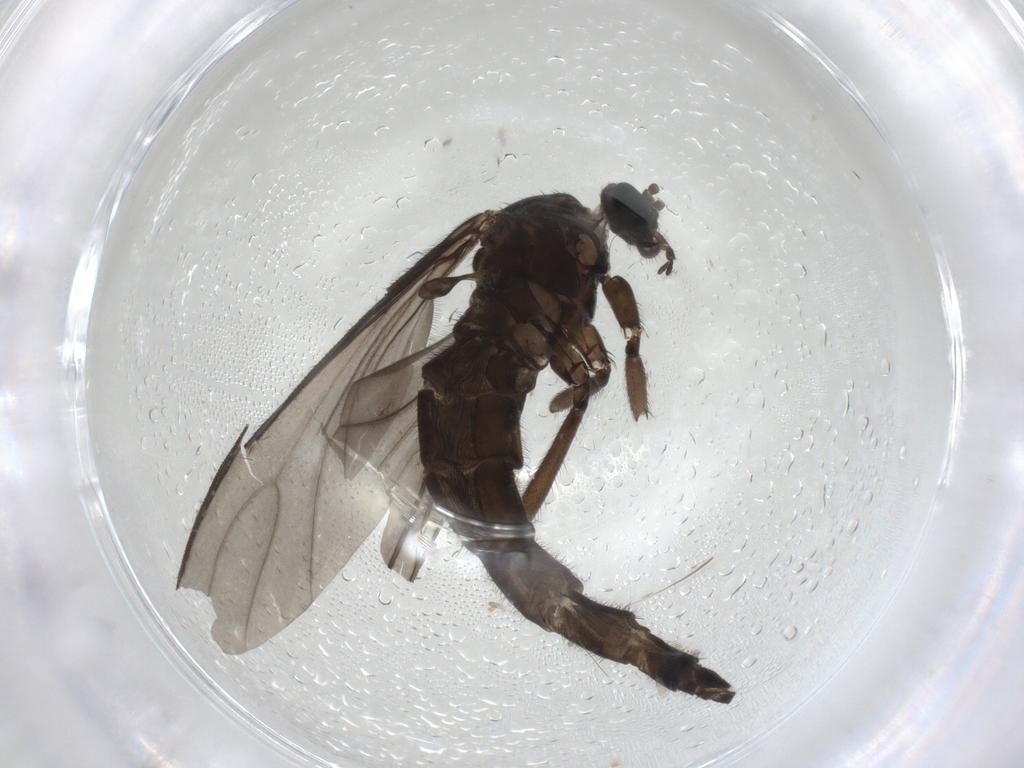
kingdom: Animalia
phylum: Arthropoda
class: Insecta
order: Diptera
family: Sciaridae
